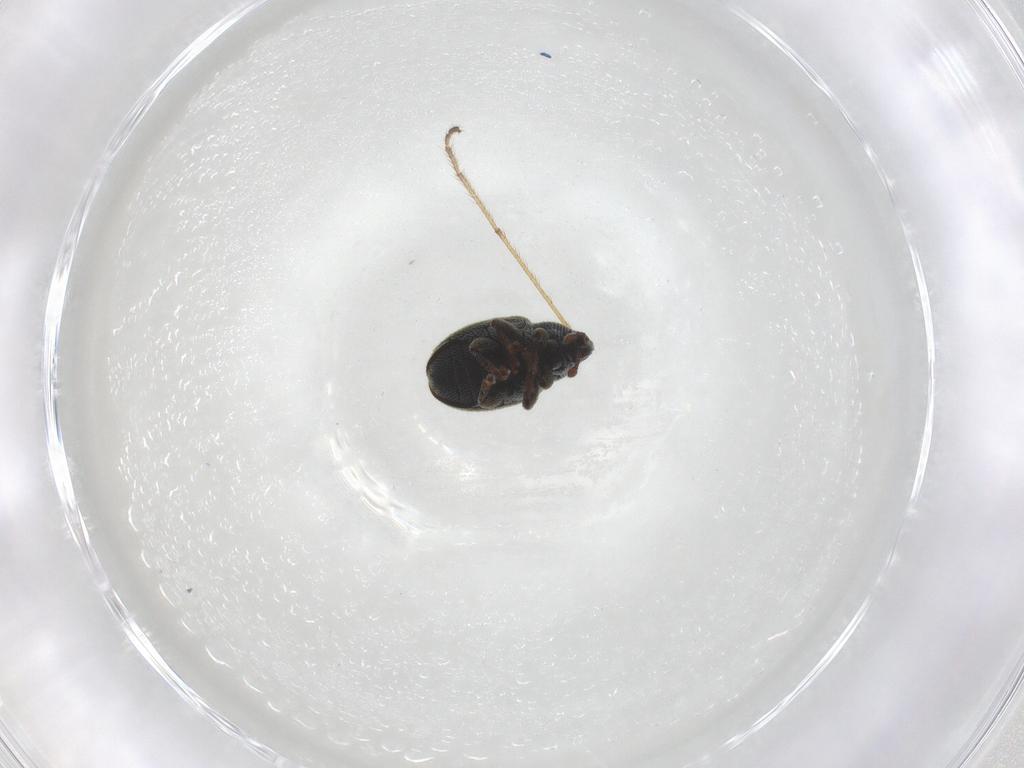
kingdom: Animalia
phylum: Arthropoda
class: Insecta
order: Coleoptera
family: Curculionidae
